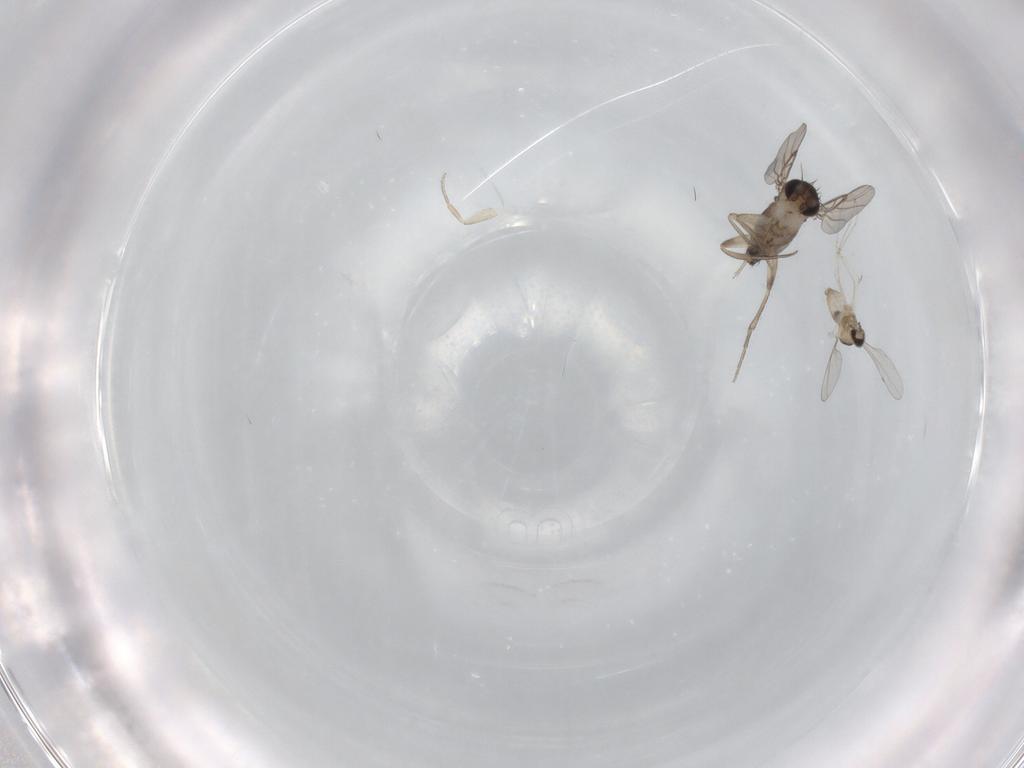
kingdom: Animalia
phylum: Arthropoda
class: Insecta
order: Diptera
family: Cecidomyiidae
